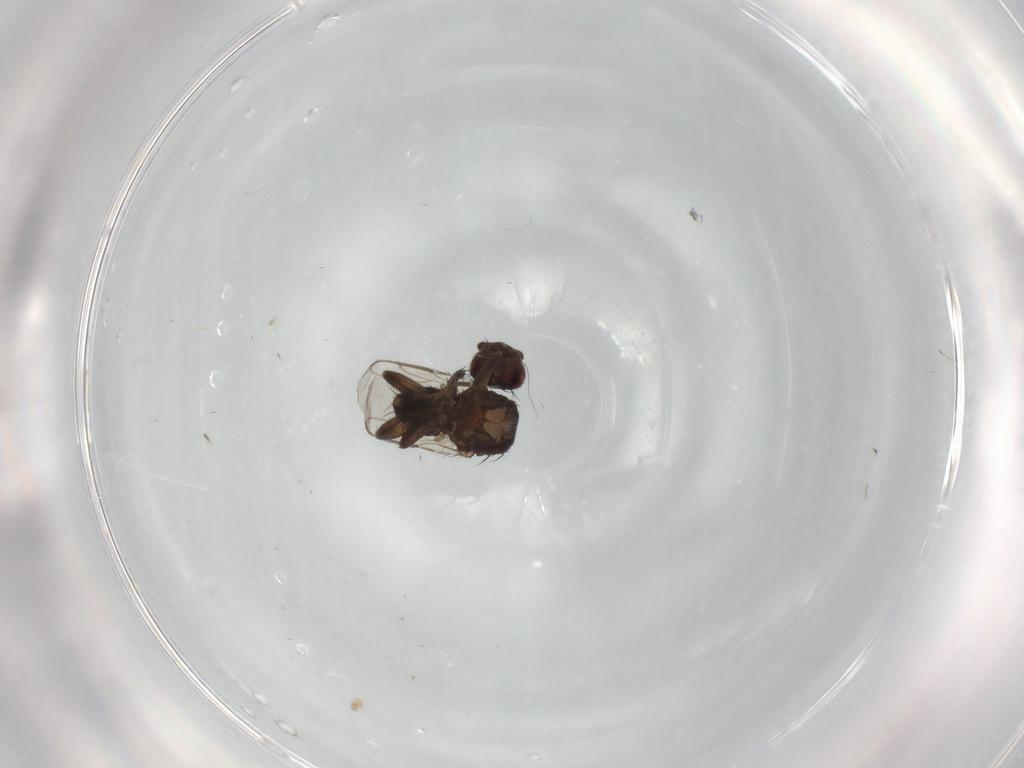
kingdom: Animalia
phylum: Arthropoda
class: Insecta
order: Diptera
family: Sphaeroceridae
